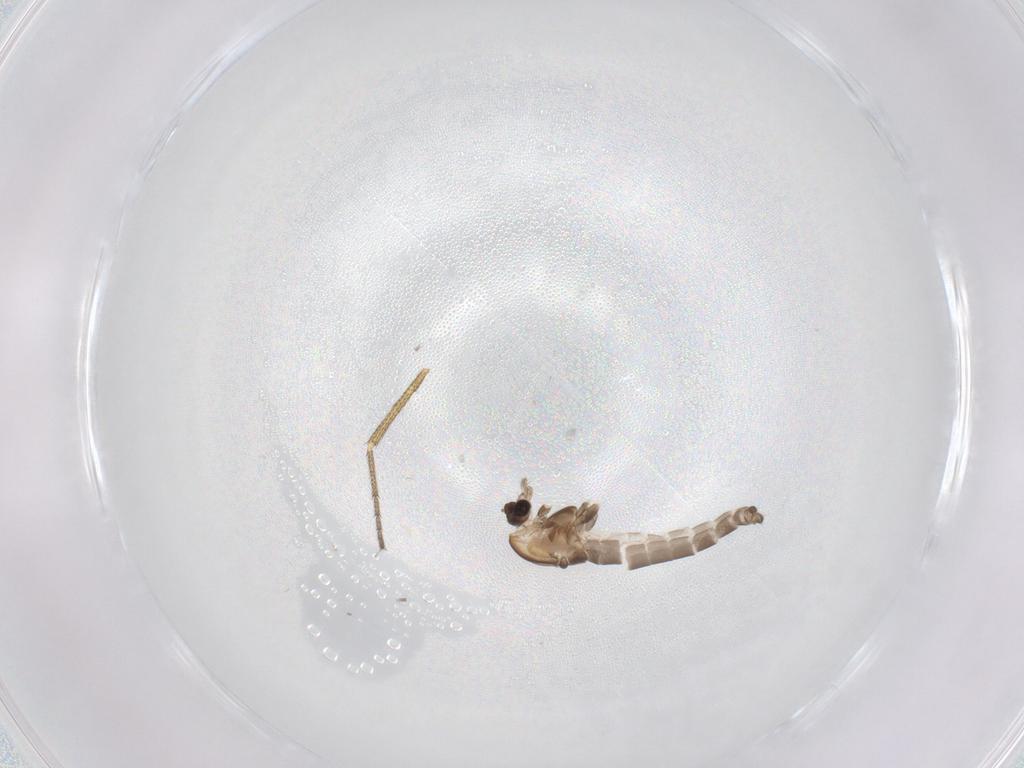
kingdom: Animalia
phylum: Arthropoda
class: Insecta
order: Diptera
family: Chironomidae
